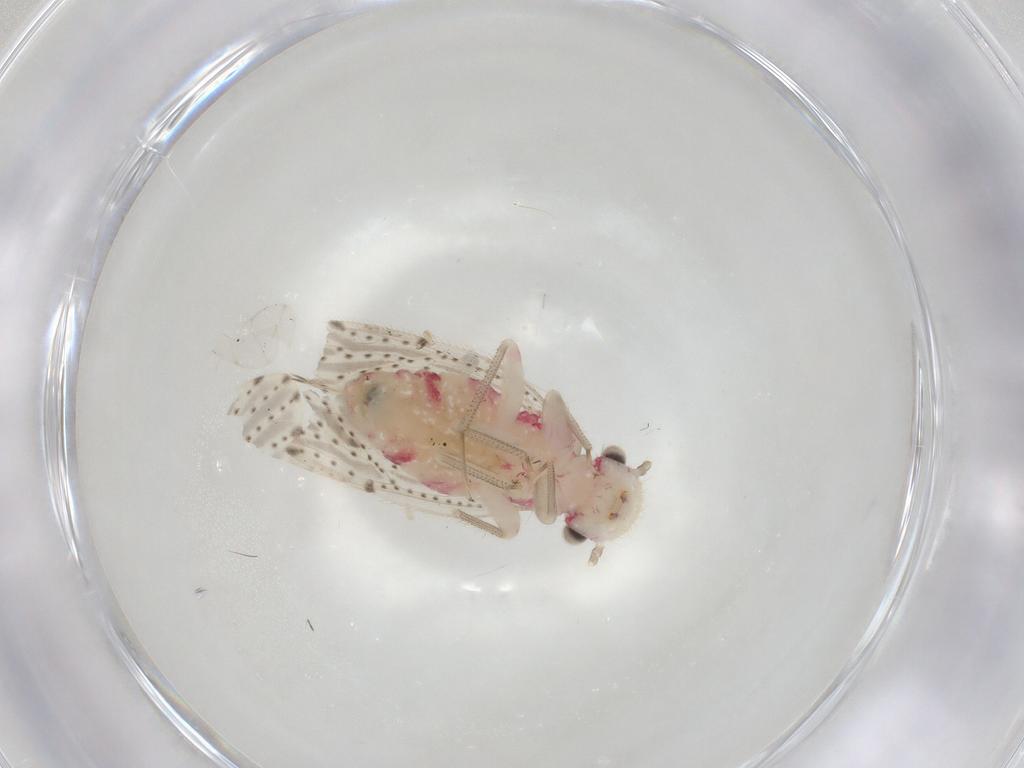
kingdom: Animalia
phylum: Arthropoda
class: Insecta
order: Psocodea
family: Hemipsocidae
